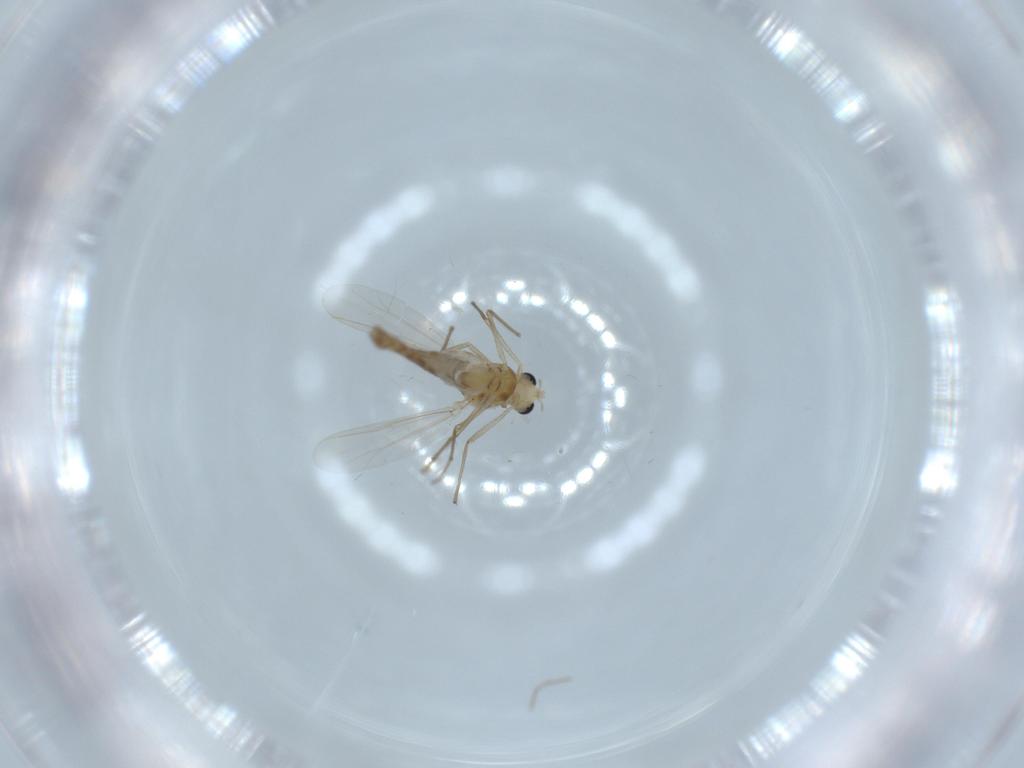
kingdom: Animalia
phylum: Arthropoda
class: Insecta
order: Diptera
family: Chironomidae
